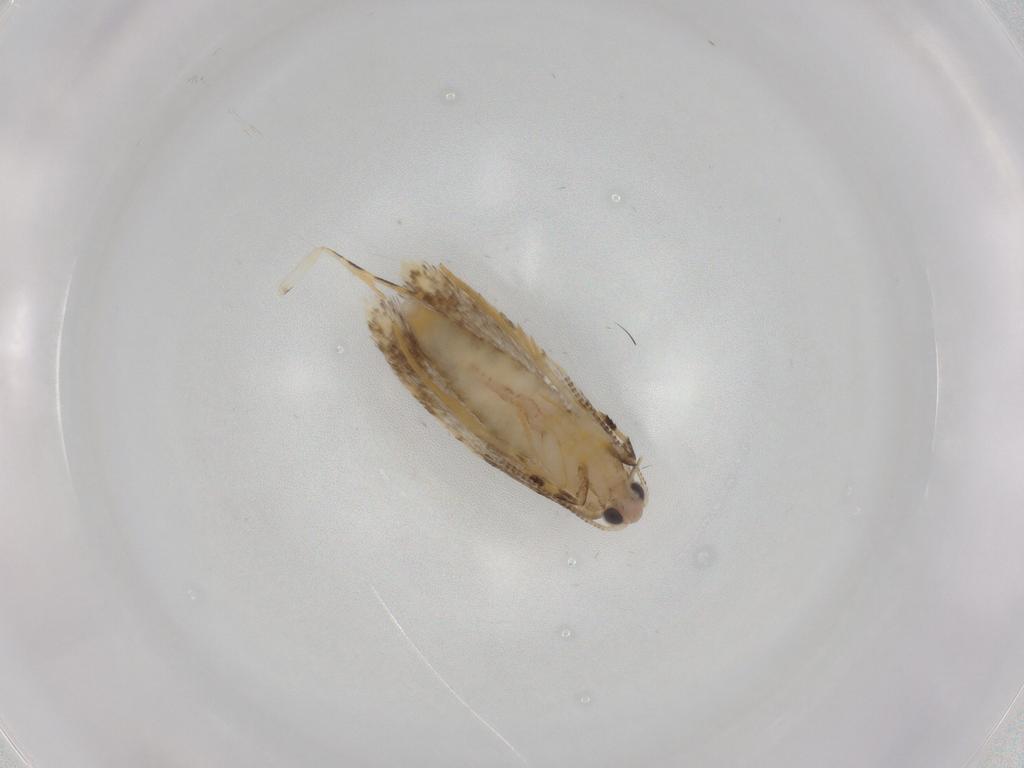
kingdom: Animalia
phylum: Arthropoda
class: Insecta
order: Lepidoptera
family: Tineidae
